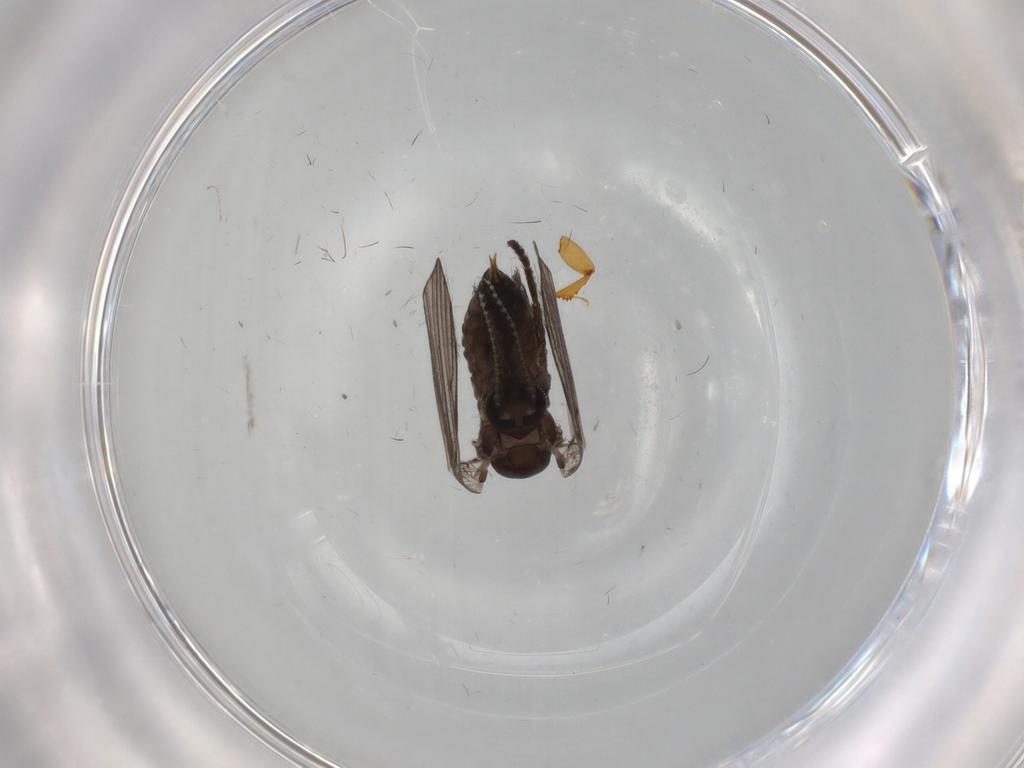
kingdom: Animalia
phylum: Arthropoda
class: Insecta
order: Diptera
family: Psychodidae
